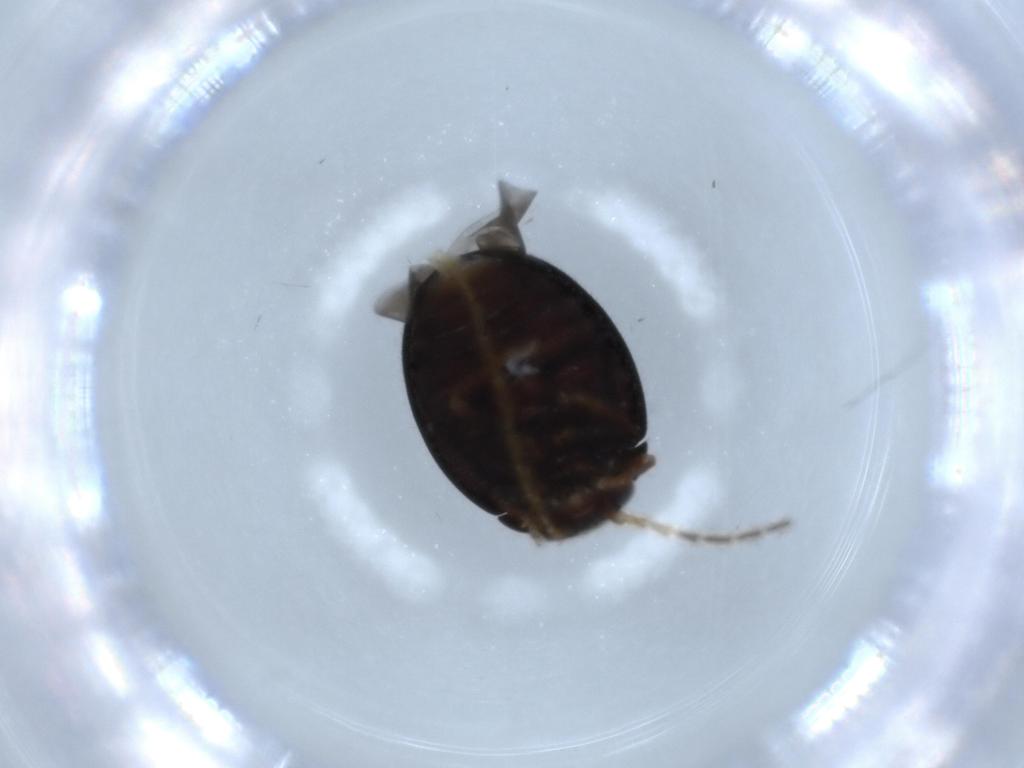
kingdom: Animalia
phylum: Arthropoda
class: Insecta
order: Coleoptera
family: Scirtidae
